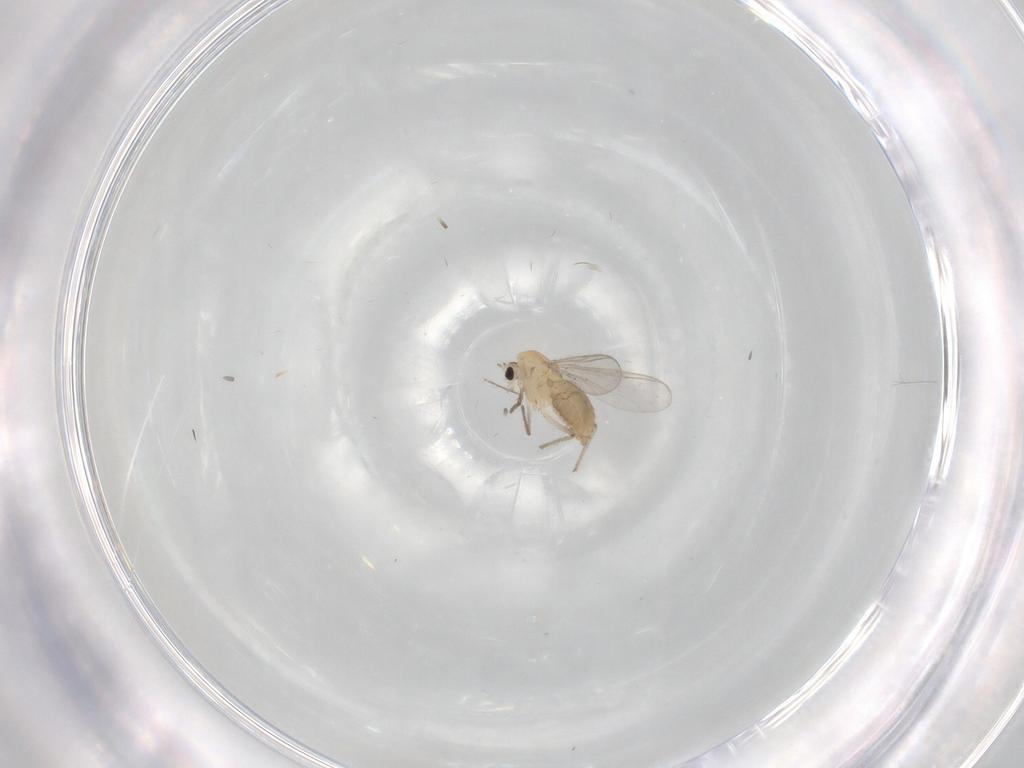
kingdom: Animalia
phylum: Arthropoda
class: Insecta
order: Diptera
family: Chironomidae
